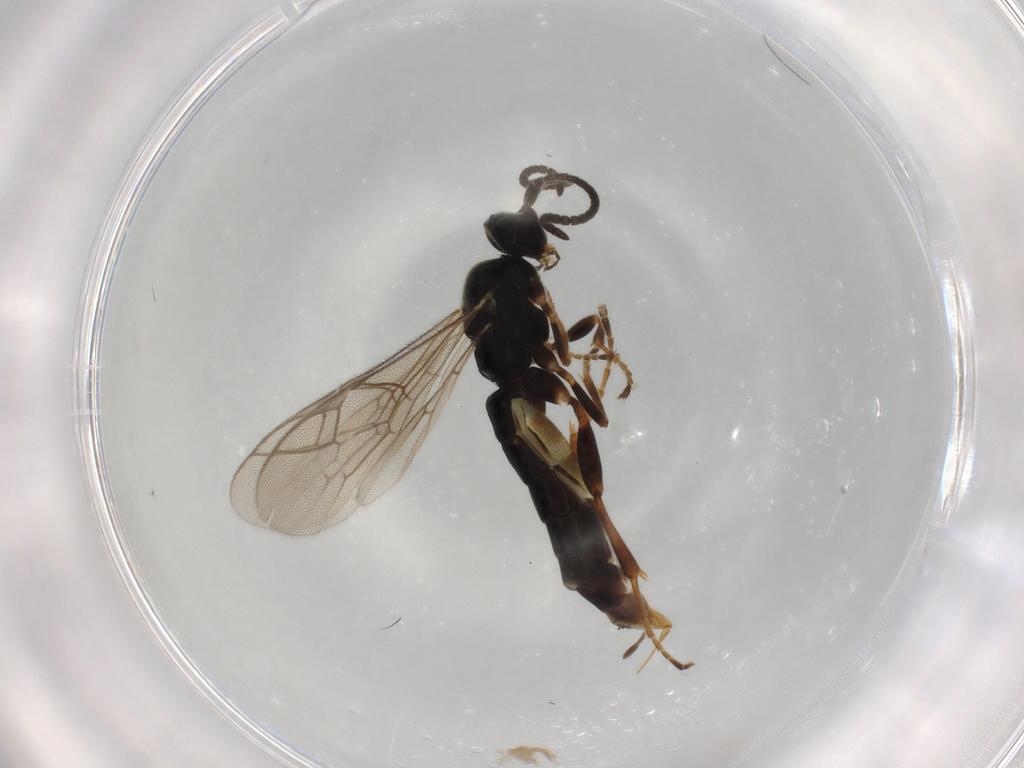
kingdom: Animalia
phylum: Arthropoda
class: Insecta
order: Hymenoptera
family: Ichneumonidae
